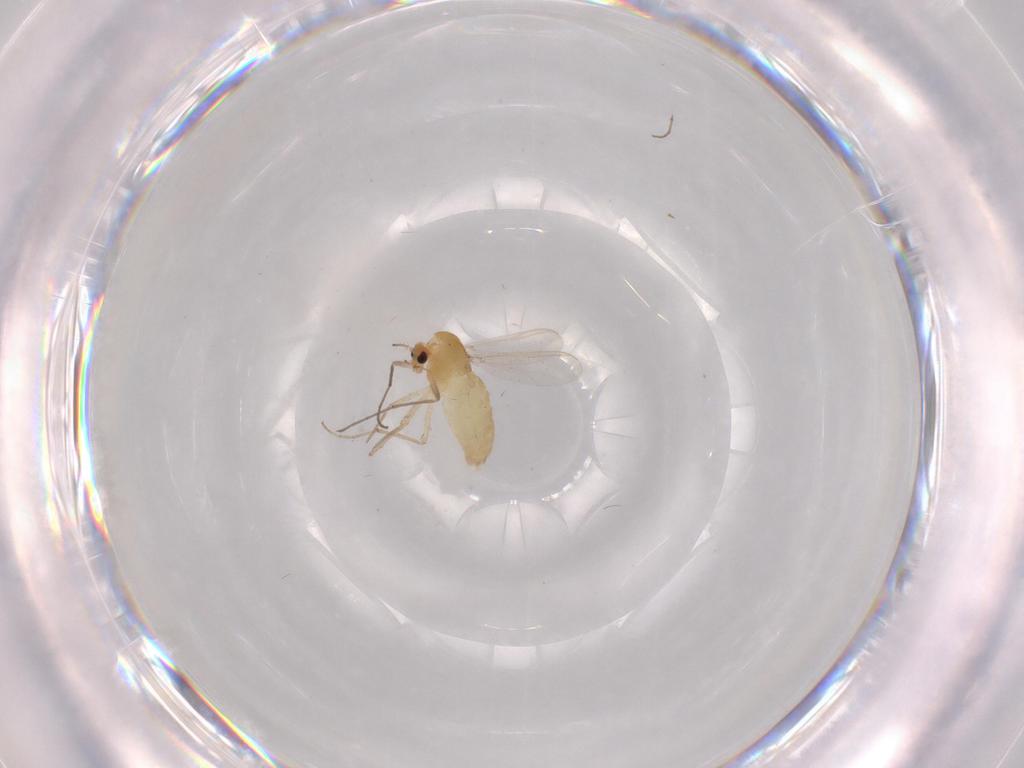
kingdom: Animalia
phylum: Arthropoda
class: Insecta
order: Diptera
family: Chironomidae
